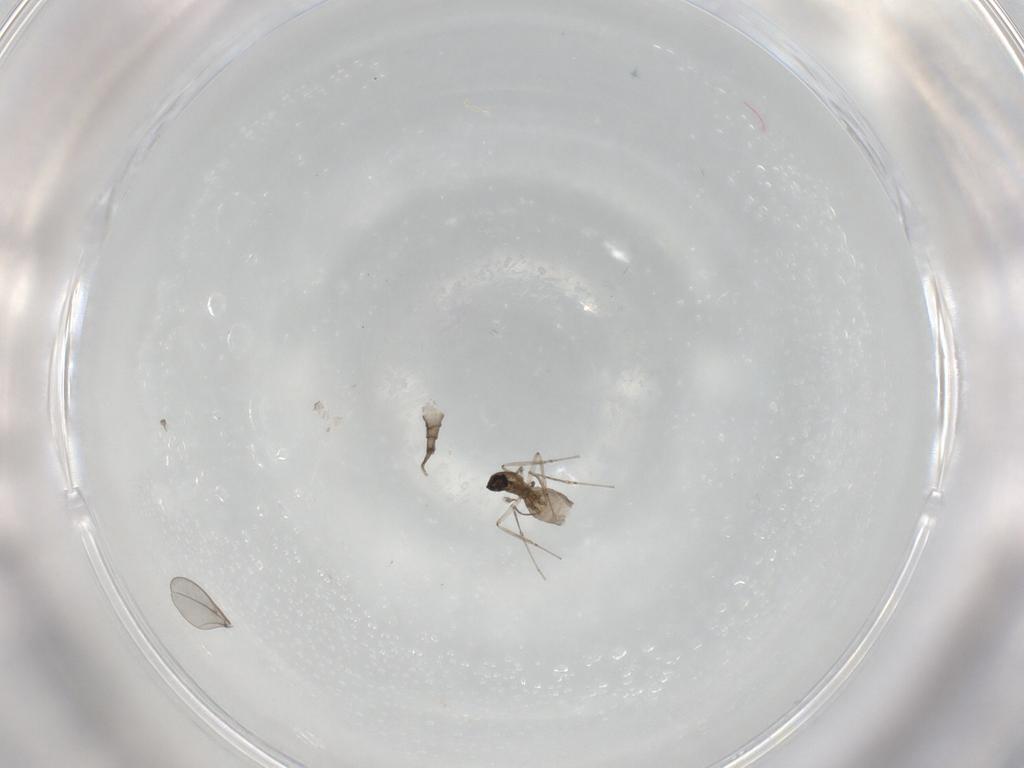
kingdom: Animalia
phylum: Arthropoda
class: Insecta
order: Diptera
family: Cecidomyiidae
